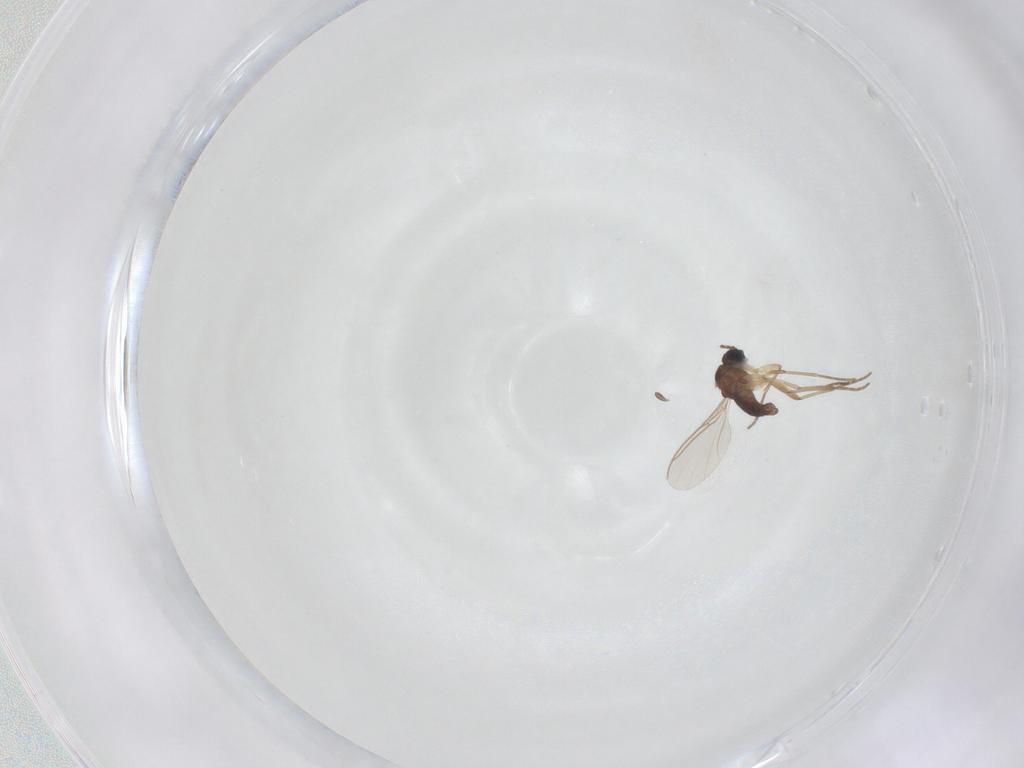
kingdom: Animalia
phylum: Arthropoda
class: Insecta
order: Diptera
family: Sciaridae
